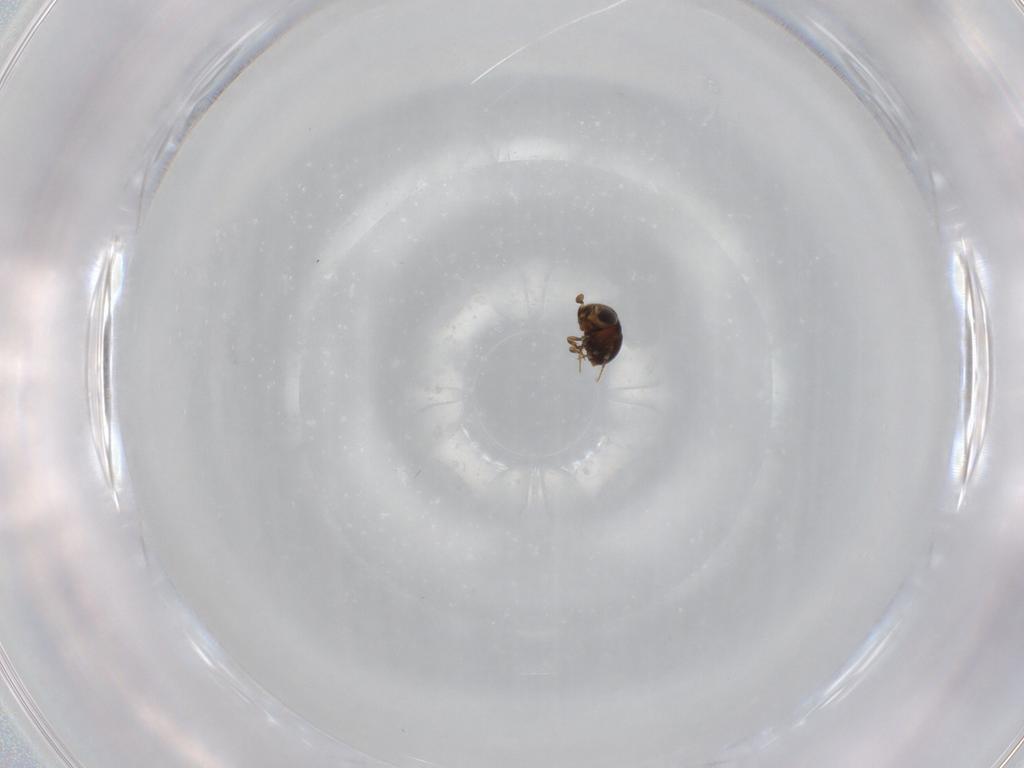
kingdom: Animalia
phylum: Arthropoda
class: Insecta
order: Hymenoptera
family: Scelionidae
